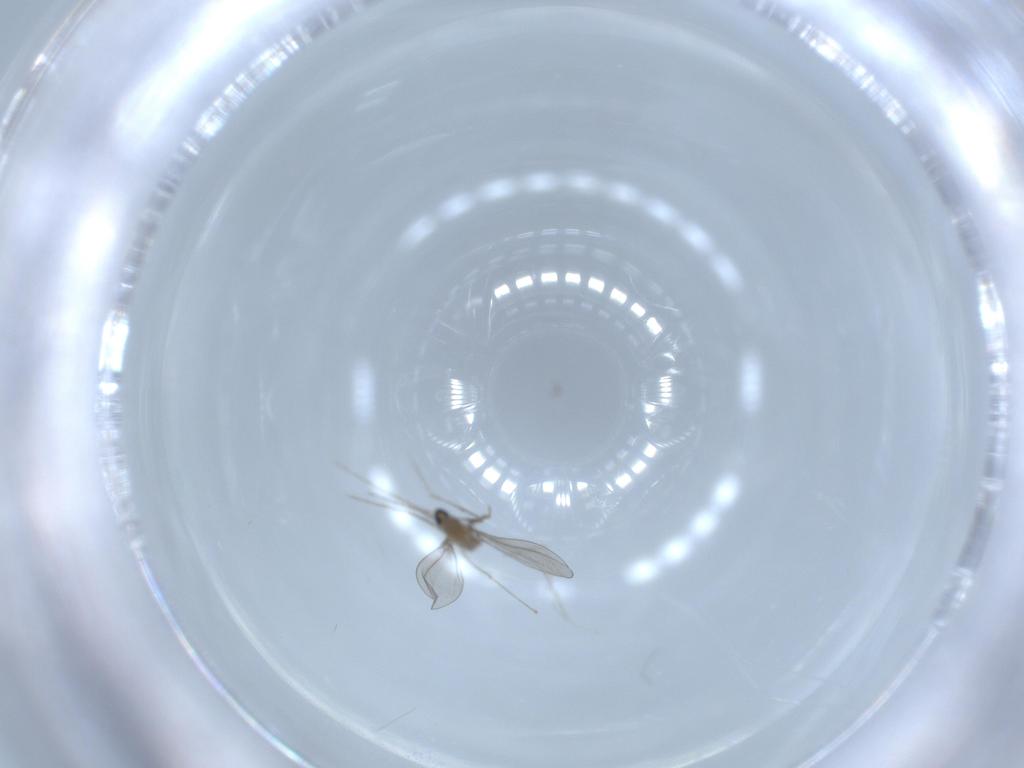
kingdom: Animalia
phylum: Arthropoda
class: Insecta
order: Diptera
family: Cecidomyiidae
